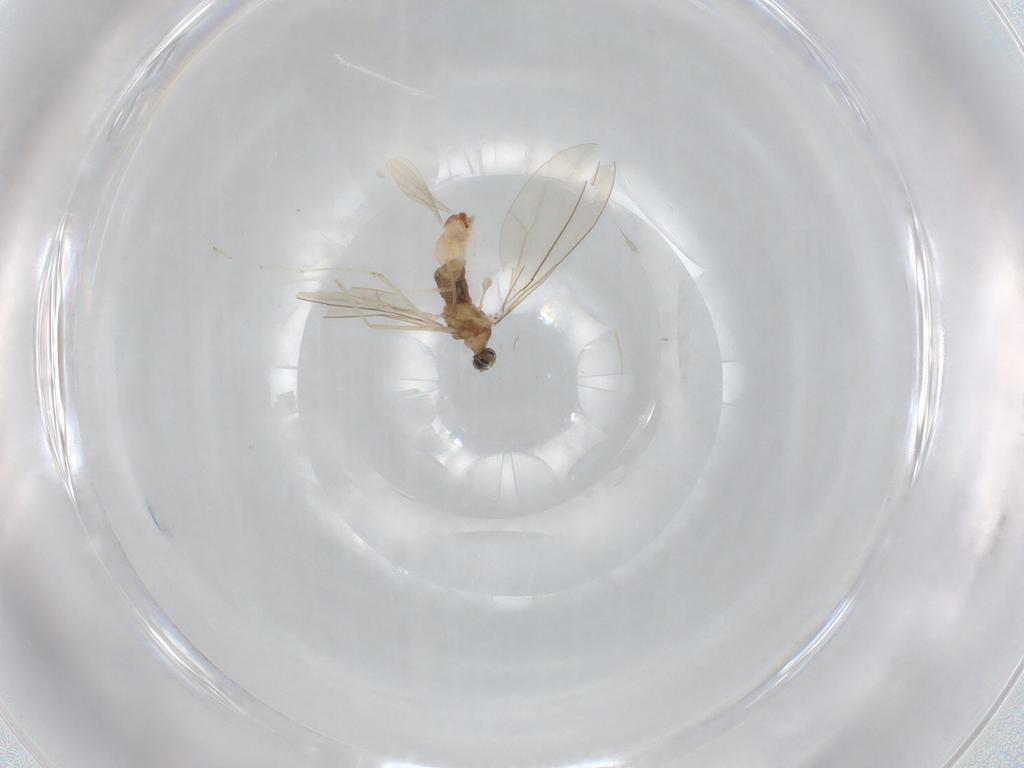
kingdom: Animalia
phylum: Arthropoda
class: Insecta
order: Diptera
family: Cecidomyiidae
